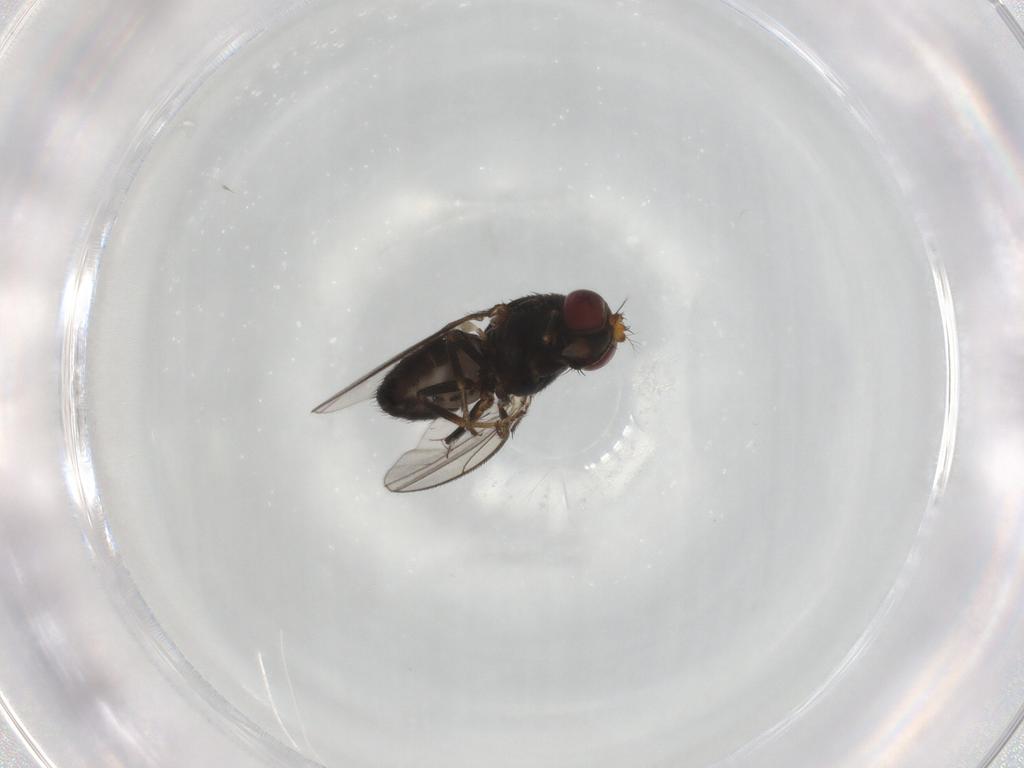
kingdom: Animalia
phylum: Arthropoda
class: Insecta
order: Diptera
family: Ephydridae
